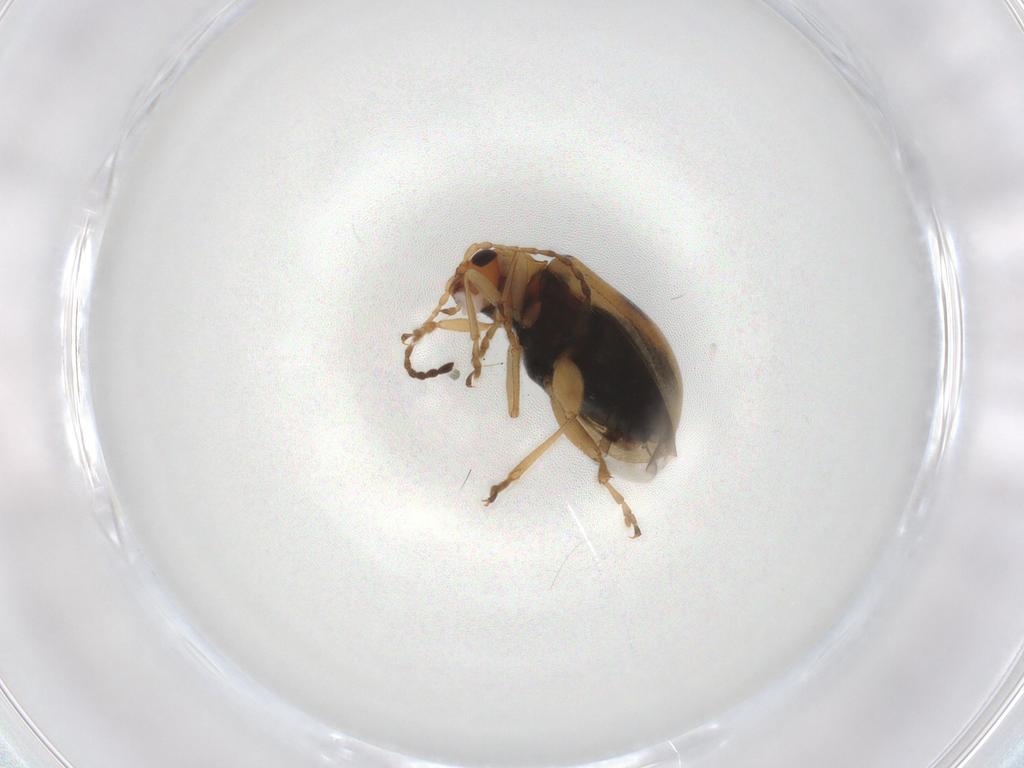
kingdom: Animalia
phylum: Arthropoda
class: Insecta
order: Coleoptera
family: Chrysomelidae
